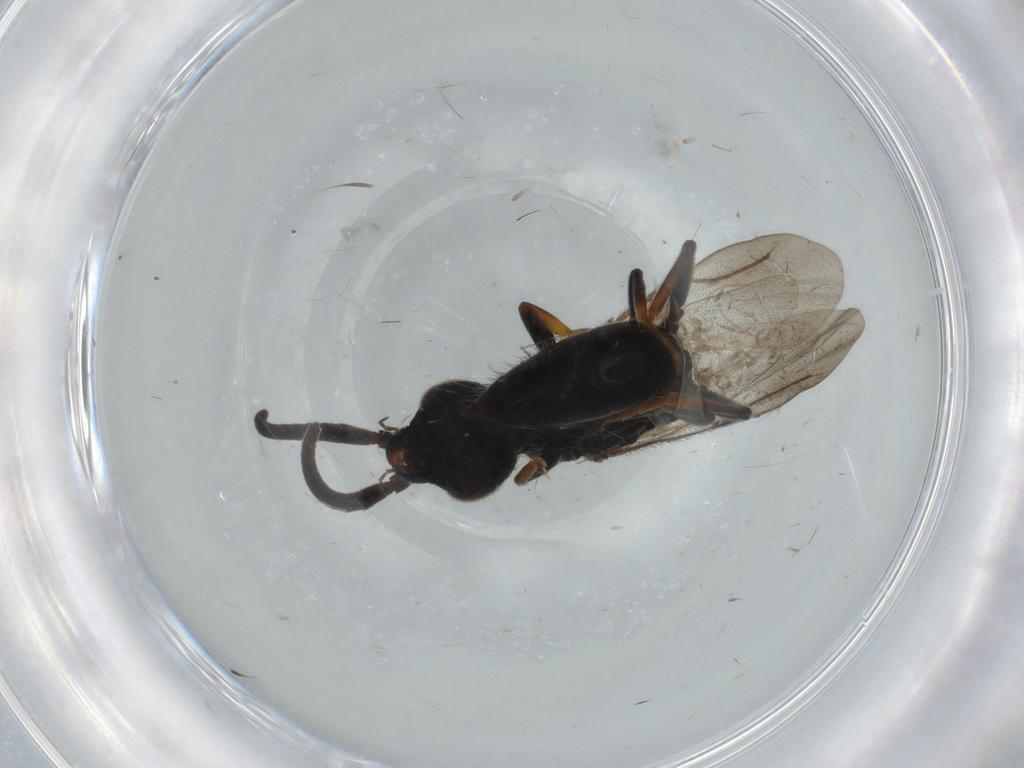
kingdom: Animalia
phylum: Arthropoda
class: Insecta
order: Hymenoptera
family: Bethylidae
